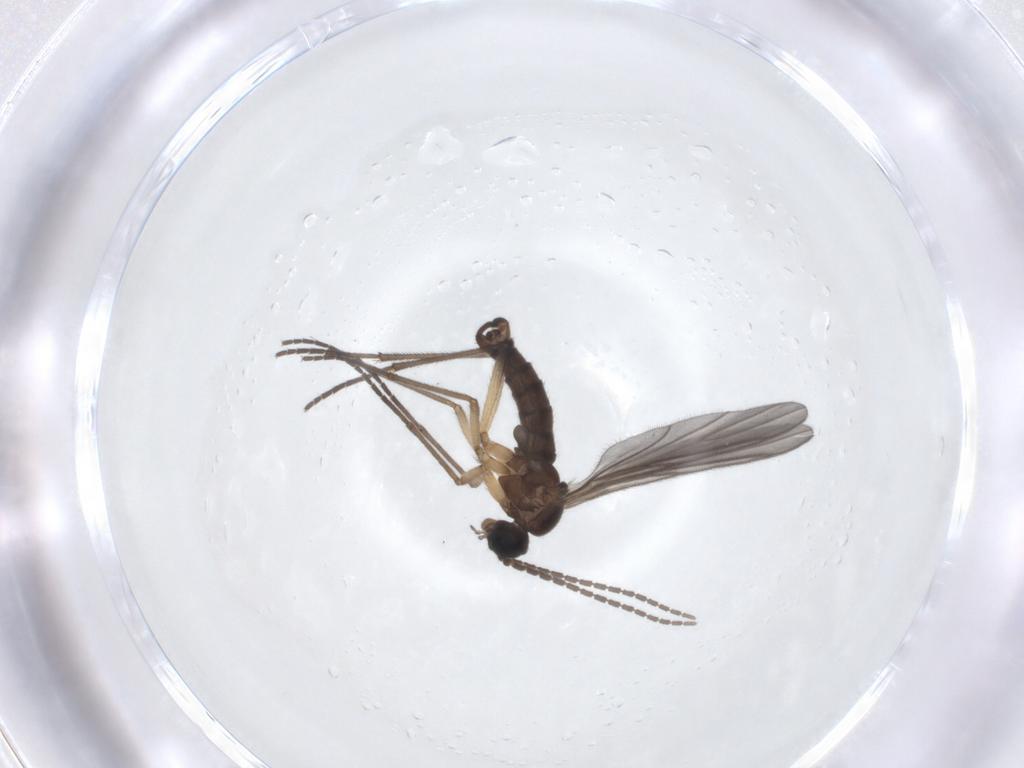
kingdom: Animalia
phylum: Arthropoda
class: Insecta
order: Diptera
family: Sciaridae
